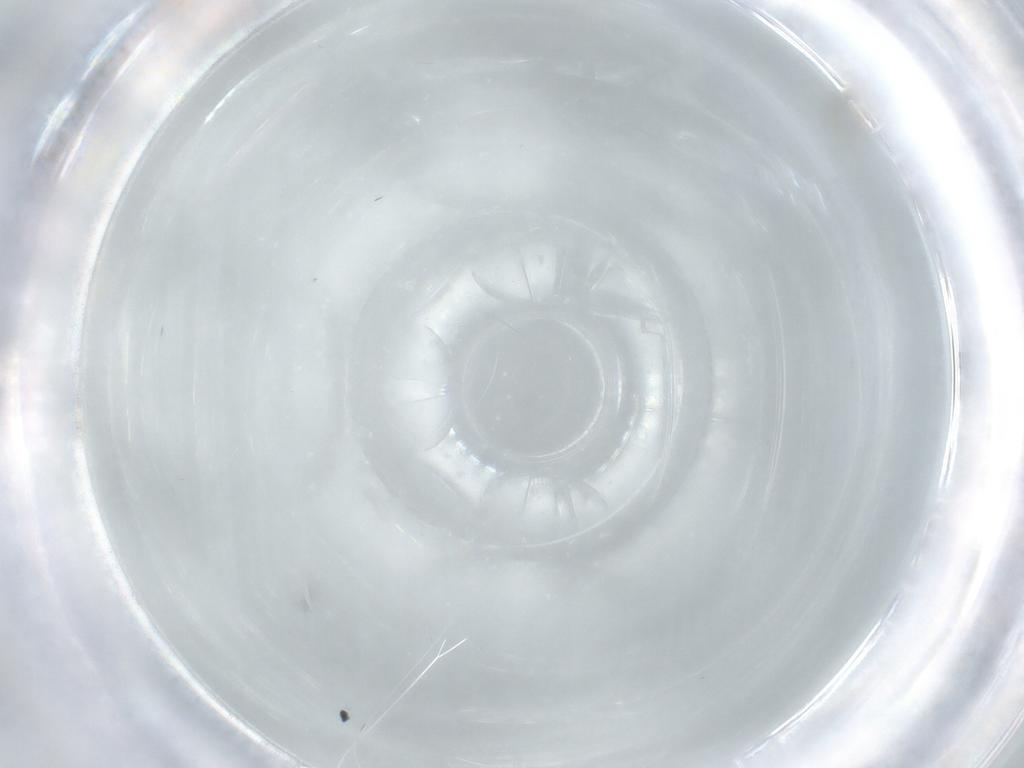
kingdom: Animalia
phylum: Arthropoda
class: Insecta
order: Diptera
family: Cecidomyiidae
